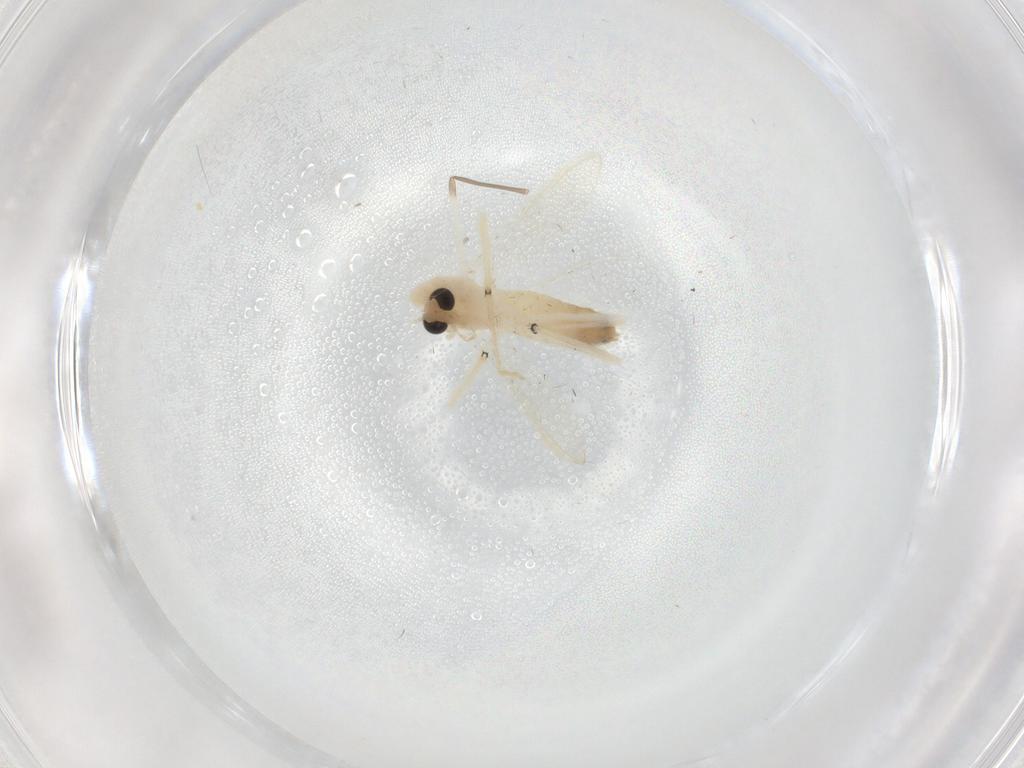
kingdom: Animalia
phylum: Arthropoda
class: Insecta
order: Diptera
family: Chironomidae
